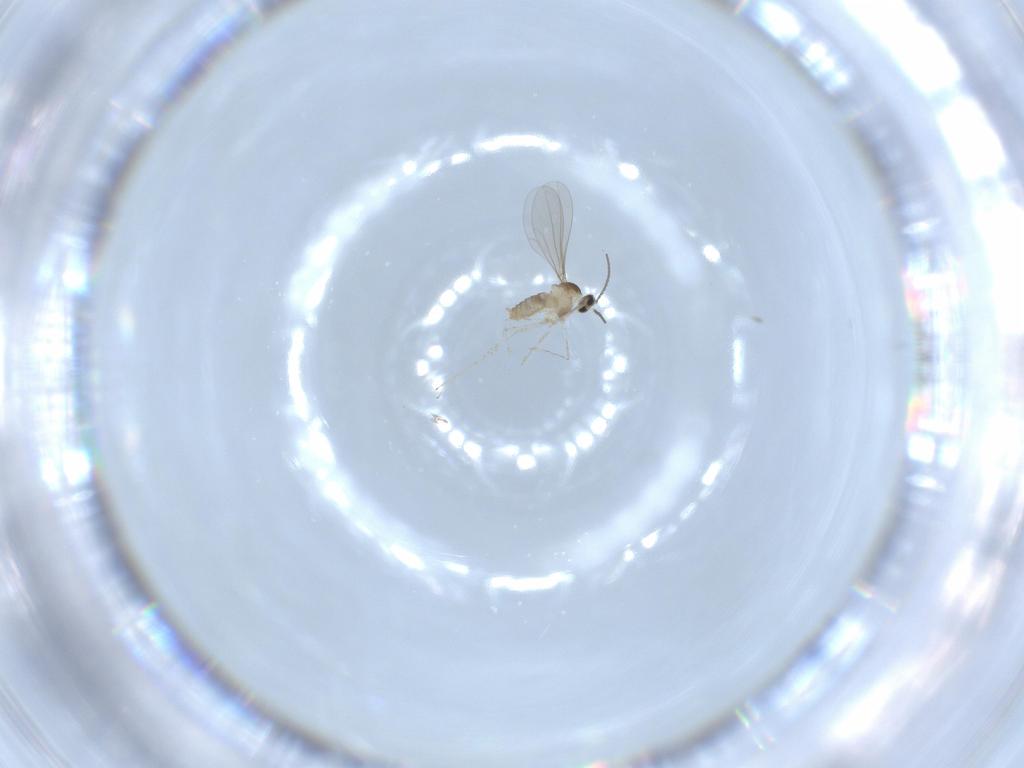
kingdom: Animalia
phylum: Arthropoda
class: Insecta
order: Diptera
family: Cecidomyiidae
